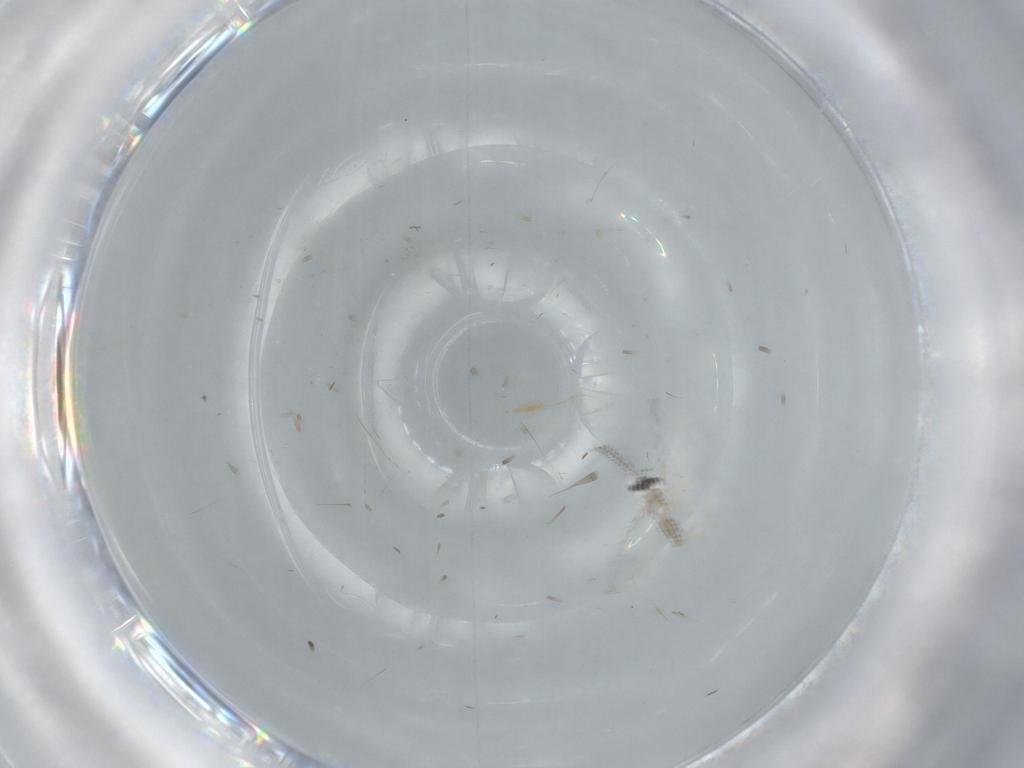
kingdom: Animalia
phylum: Arthropoda
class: Insecta
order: Diptera
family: Cecidomyiidae
